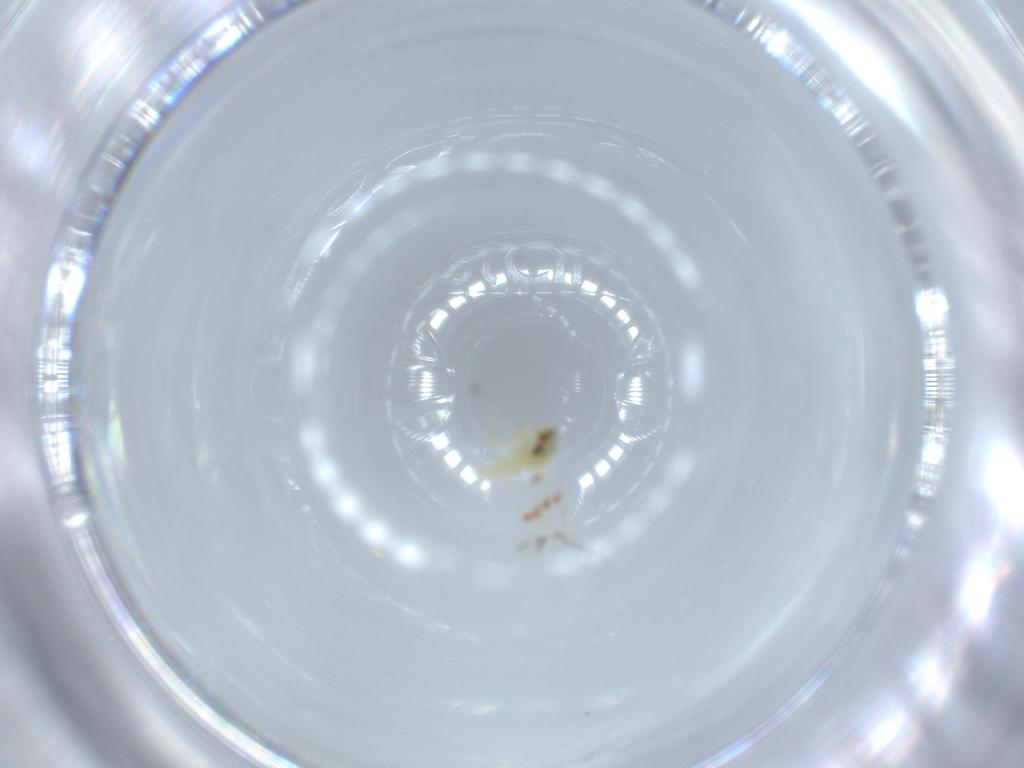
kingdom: Animalia
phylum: Arthropoda
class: Insecta
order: Hemiptera
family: Aleyrodidae
